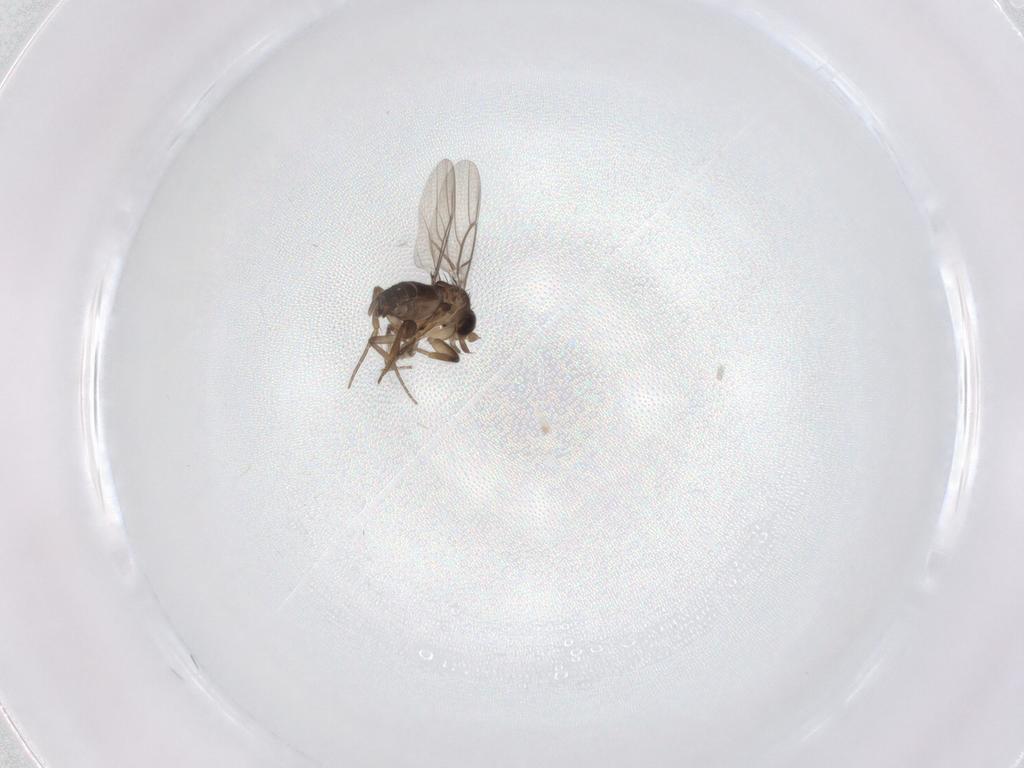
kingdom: Animalia
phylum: Arthropoda
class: Insecta
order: Diptera
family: Phoridae
